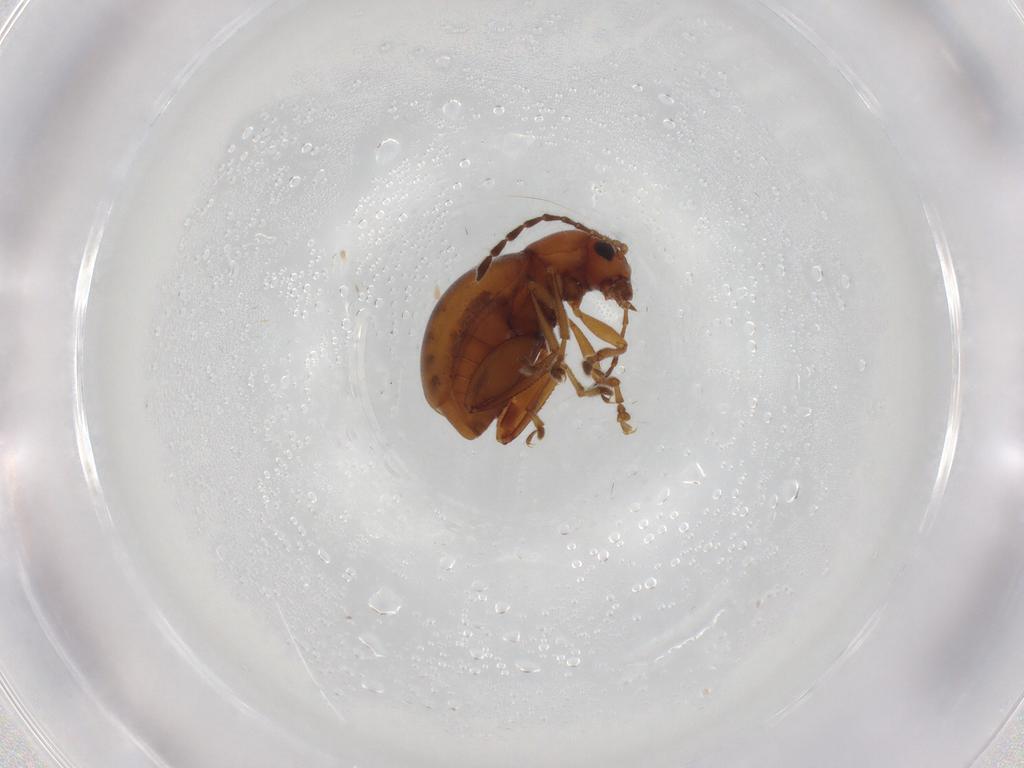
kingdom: Animalia
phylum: Arthropoda
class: Insecta
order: Coleoptera
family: Chrysomelidae
